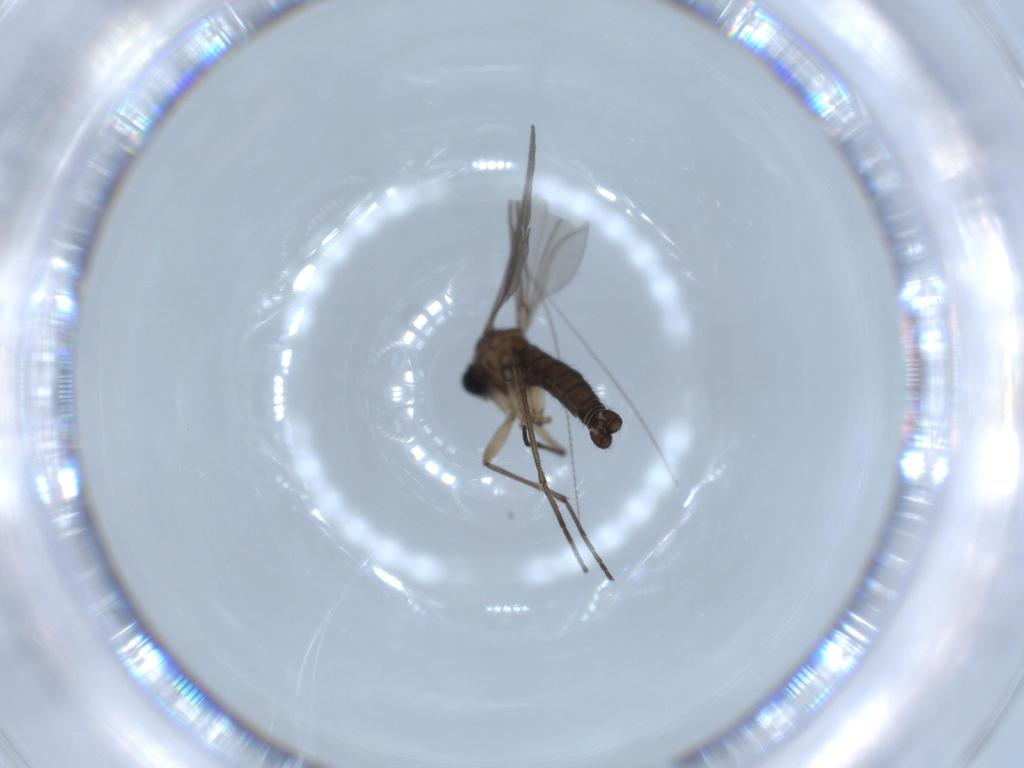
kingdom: Animalia
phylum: Arthropoda
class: Insecta
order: Diptera
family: Sciaridae
